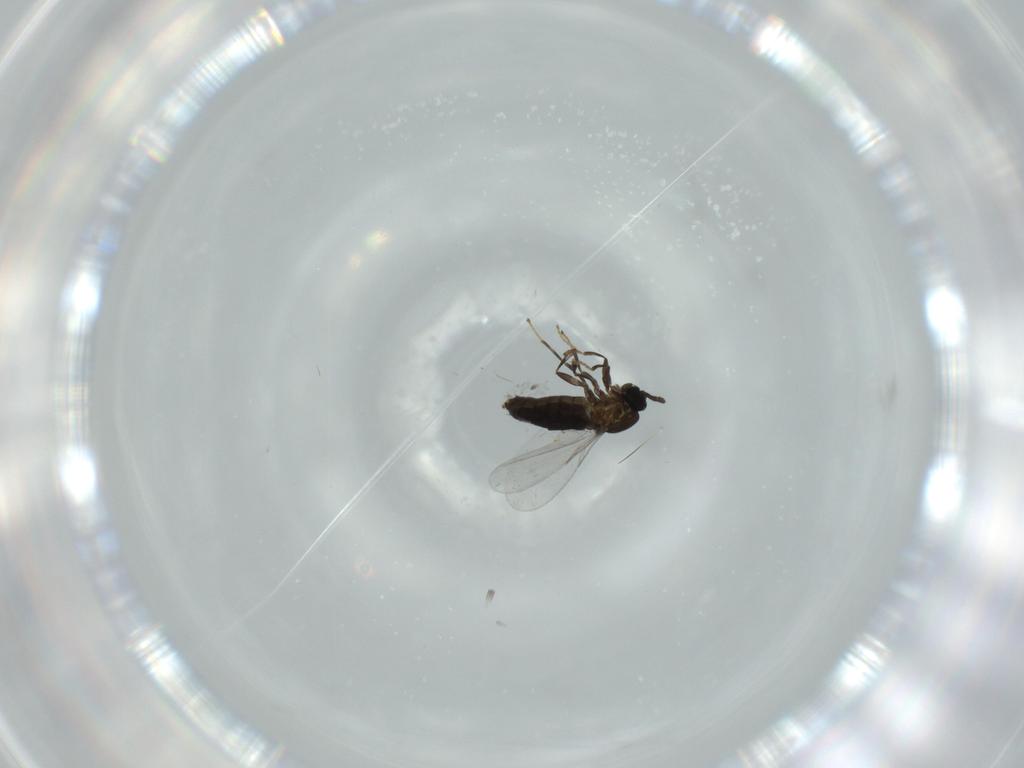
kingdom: Animalia
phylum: Arthropoda
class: Insecta
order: Diptera
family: Scatopsidae
